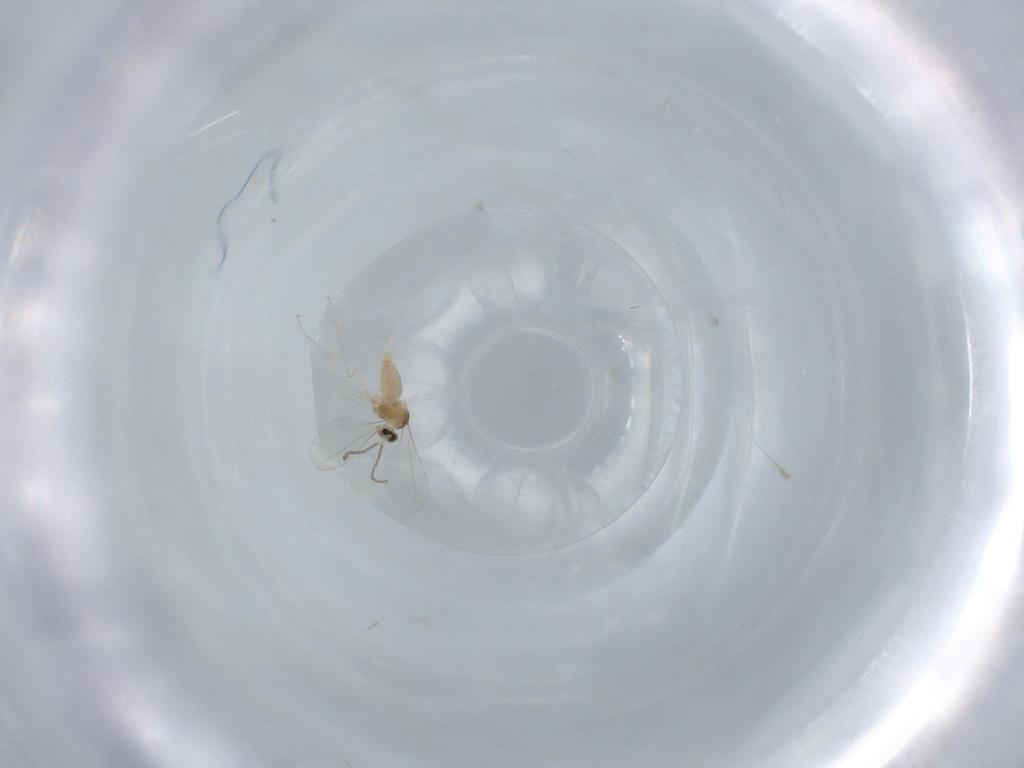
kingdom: Animalia
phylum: Arthropoda
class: Insecta
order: Diptera
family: Cecidomyiidae
